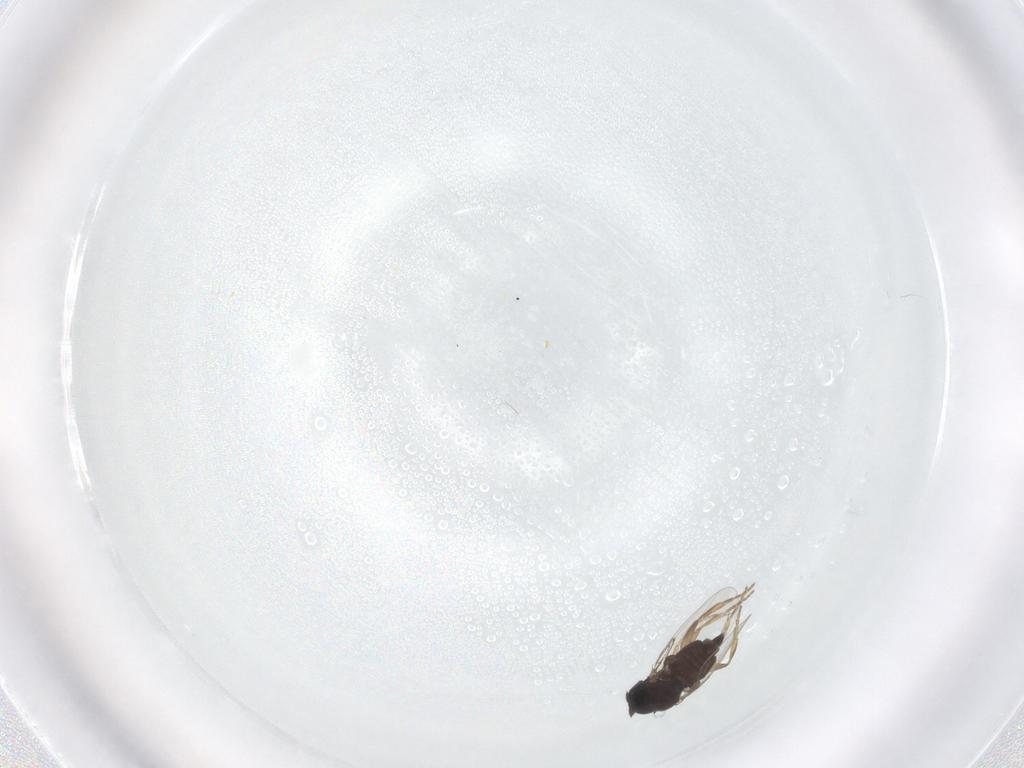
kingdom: Animalia
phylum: Arthropoda
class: Insecta
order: Diptera
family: Phoridae
